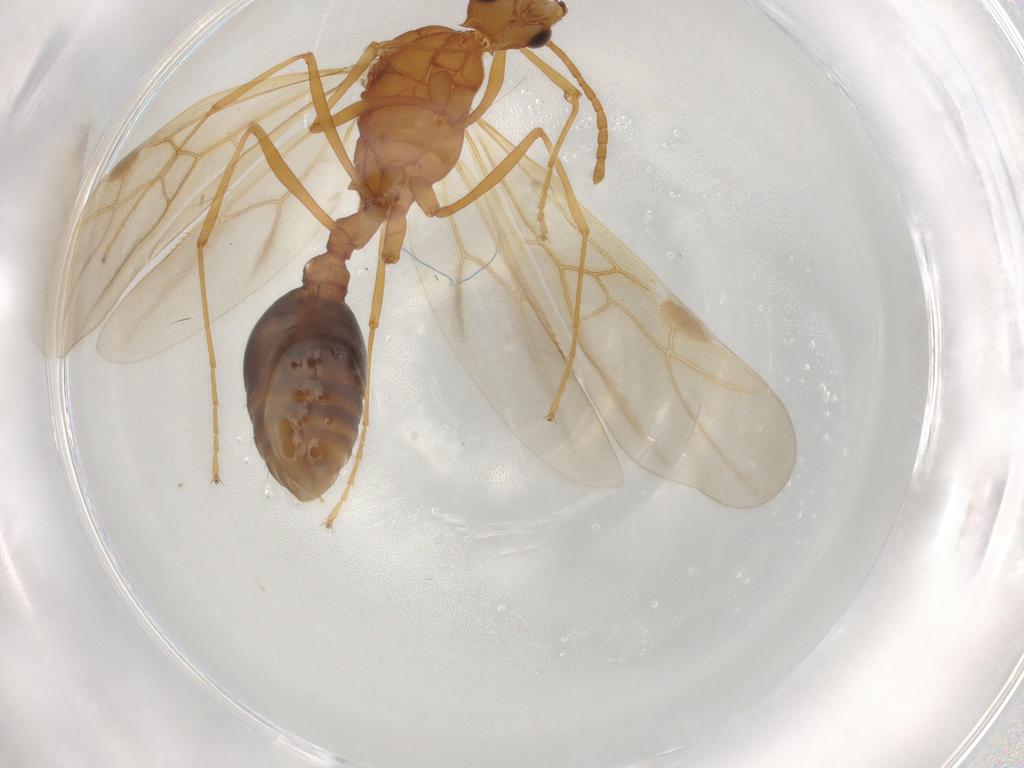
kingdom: Animalia
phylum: Arthropoda
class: Insecta
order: Hymenoptera
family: Formicidae
